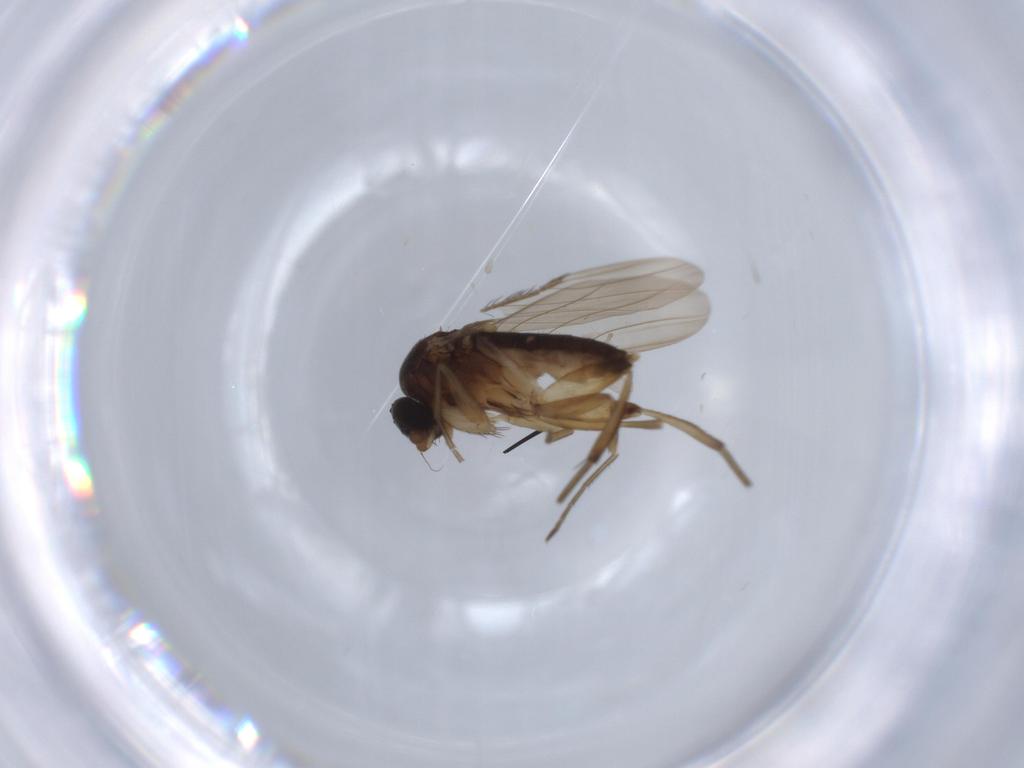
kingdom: Animalia
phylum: Arthropoda
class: Insecta
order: Diptera
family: Phoridae
